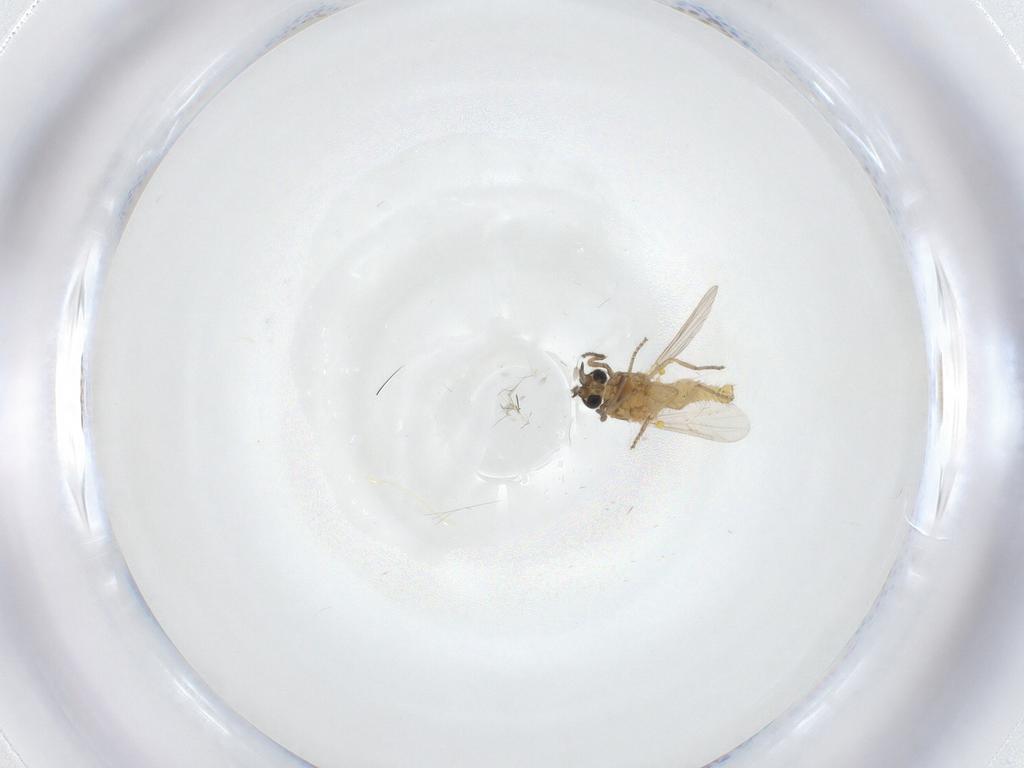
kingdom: Animalia
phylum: Arthropoda
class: Insecta
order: Diptera
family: Ceratopogonidae
